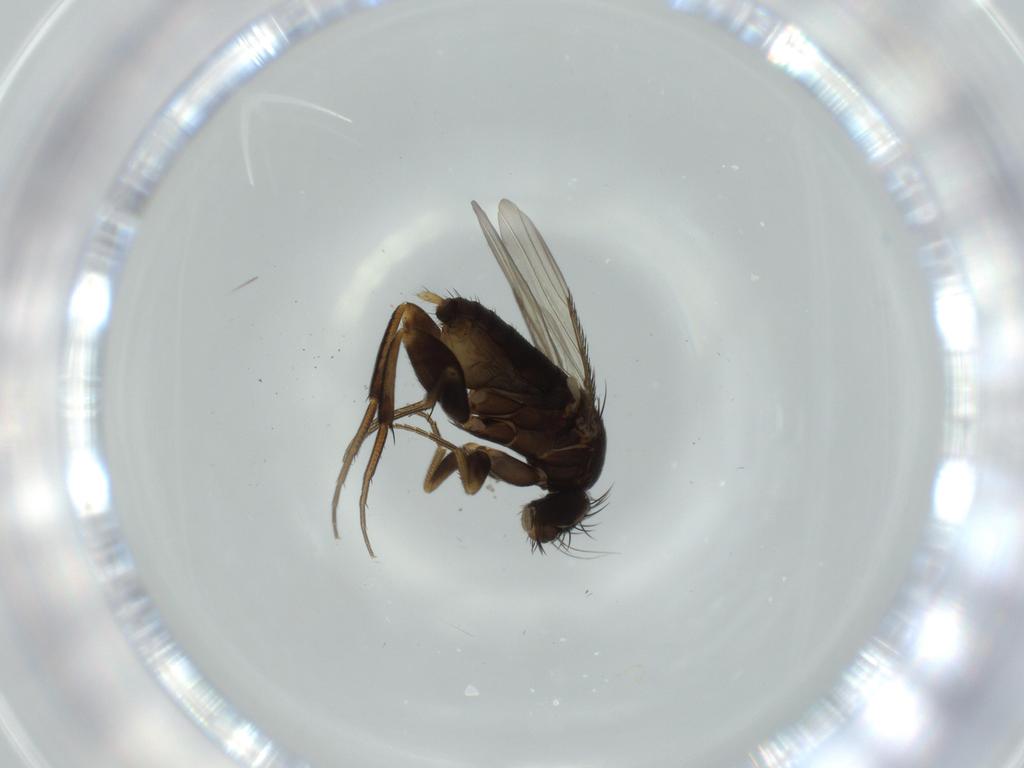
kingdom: Animalia
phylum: Arthropoda
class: Insecta
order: Diptera
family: Phoridae
